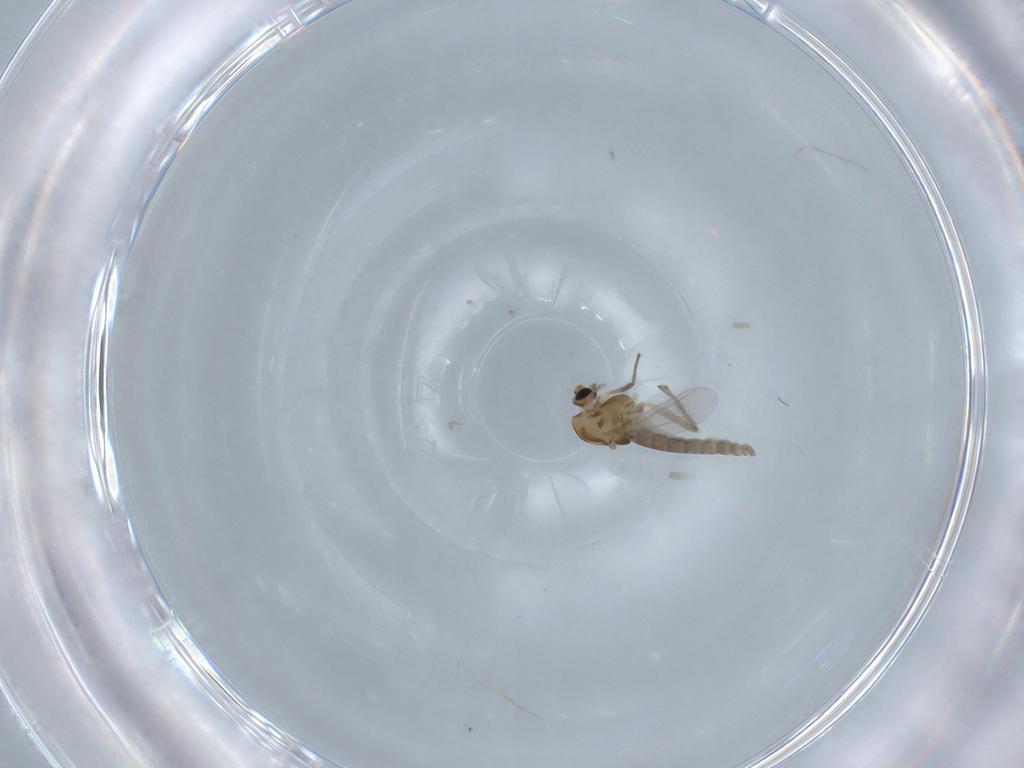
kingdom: Animalia
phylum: Arthropoda
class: Insecta
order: Diptera
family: Chironomidae
